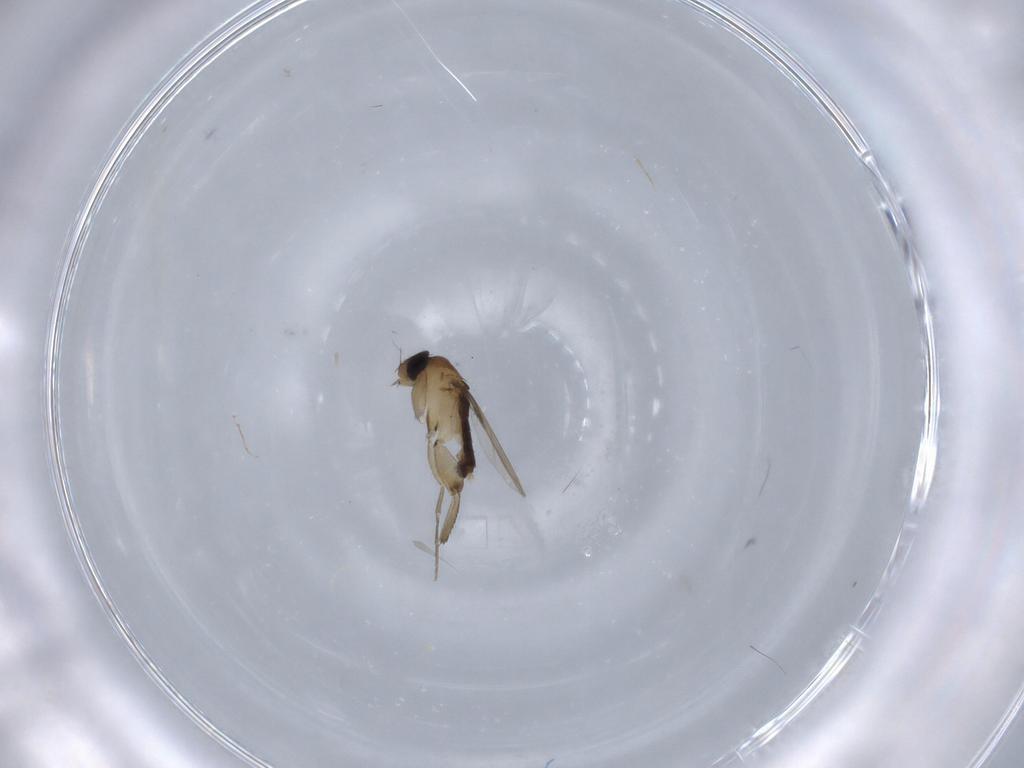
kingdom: Animalia
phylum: Arthropoda
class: Insecta
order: Diptera
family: Phoridae
